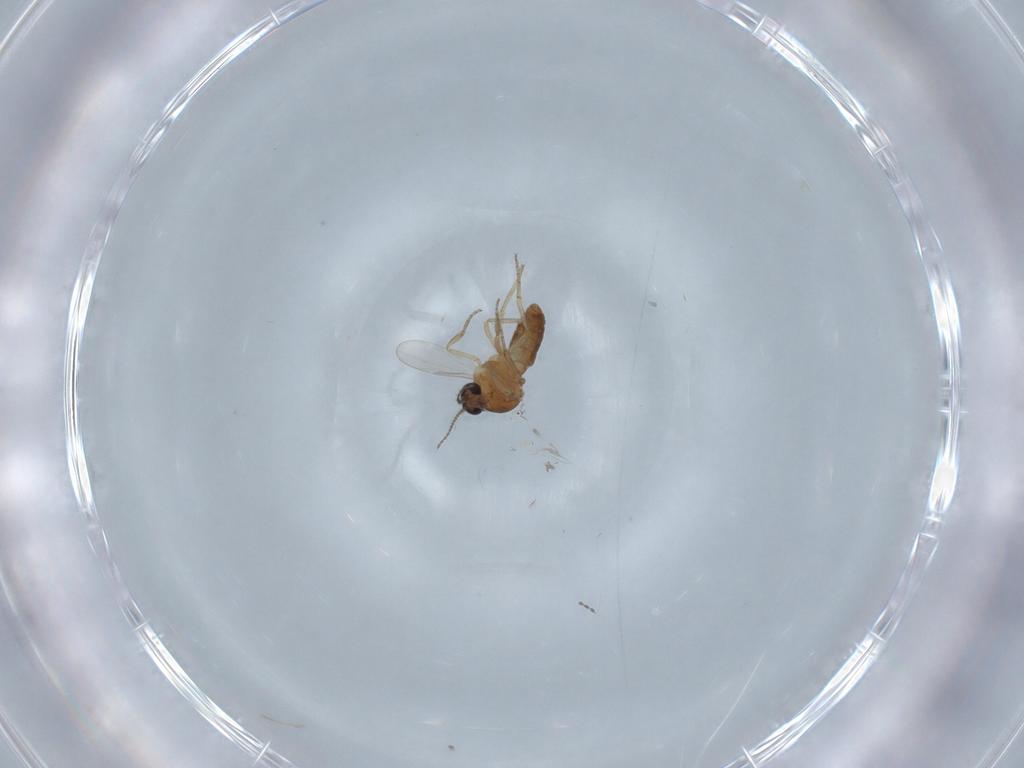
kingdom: Animalia
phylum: Arthropoda
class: Insecta
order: Diptera
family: Ceratopogonidae
